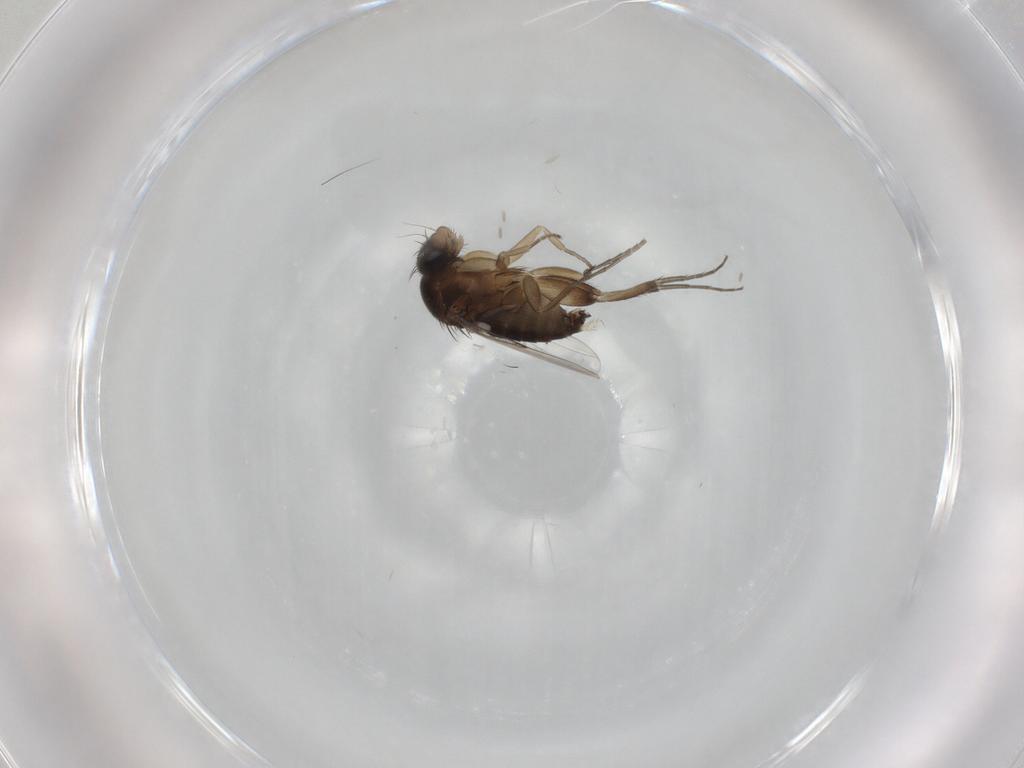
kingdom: Animalia
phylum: Arthropoda
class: Insecta
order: Diptera
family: Phoridae
